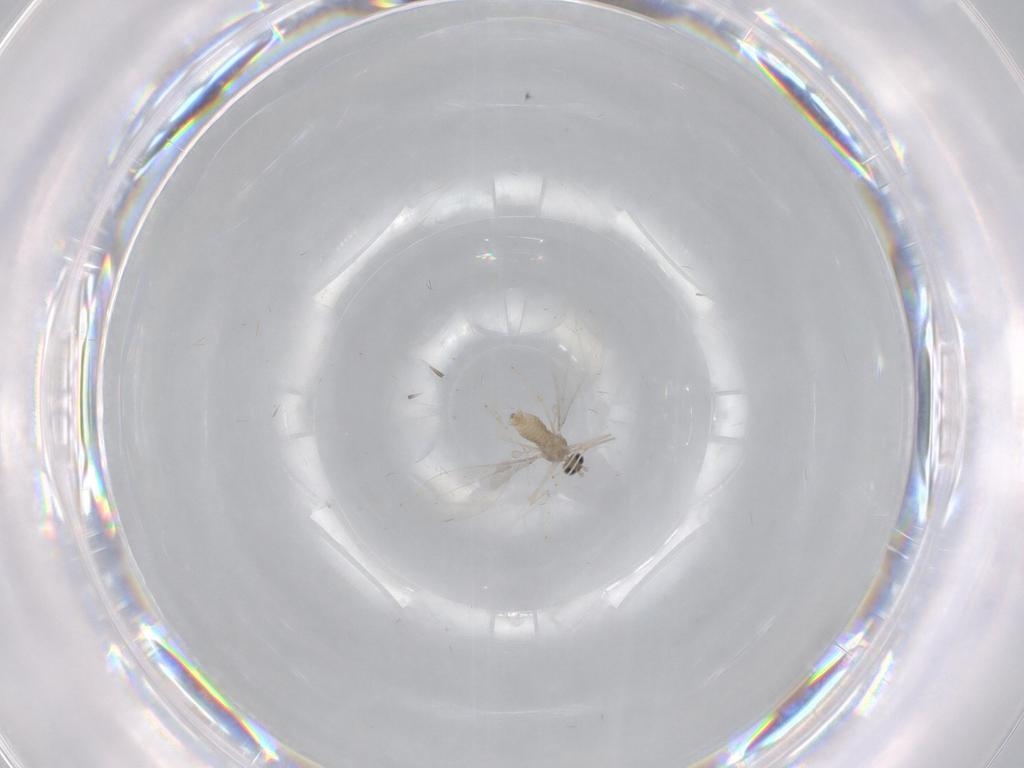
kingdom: Animalia
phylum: Arthropoda
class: Insecta
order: Diptera
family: Cecidomyiidae
